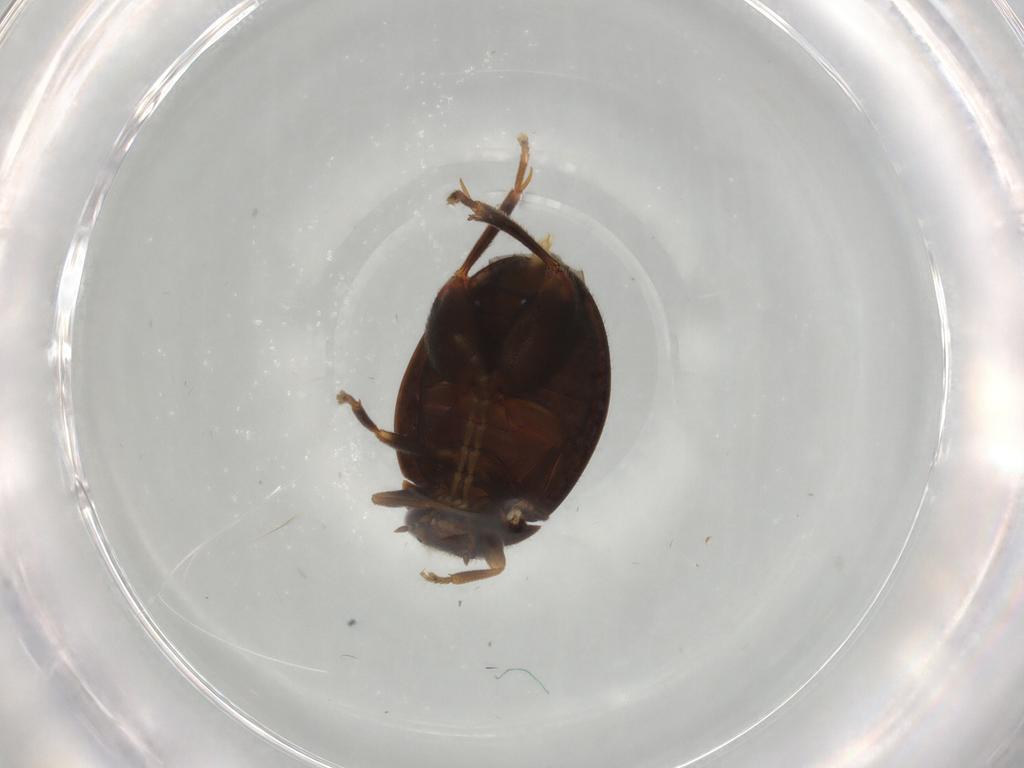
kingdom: Animalia
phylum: Arthropoda
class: Insecta
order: Coleoptera
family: Scirtidae
